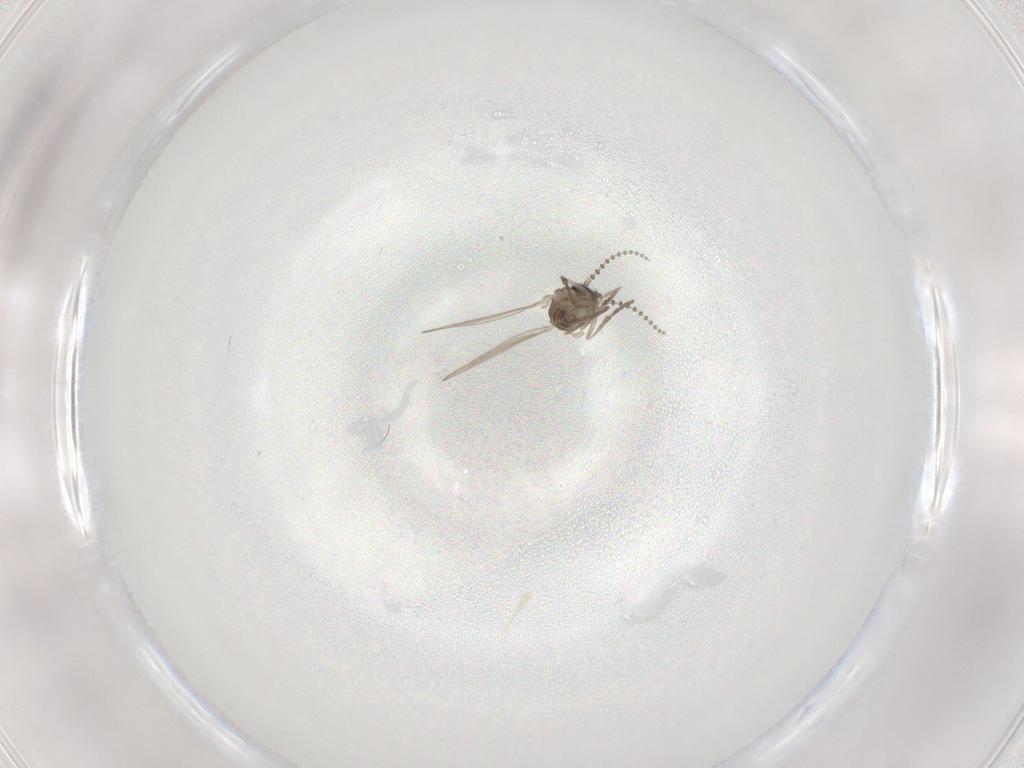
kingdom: Animalia
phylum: Arthropoda
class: Insecta
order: Diptera
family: Psychodidae
